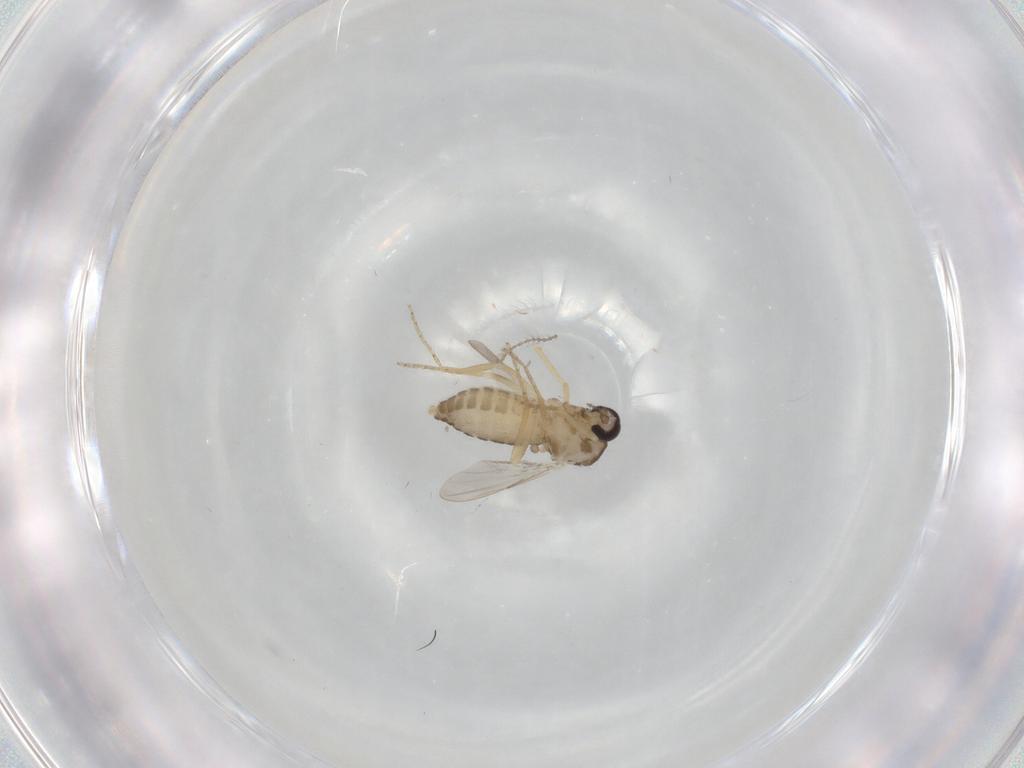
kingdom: Animalia
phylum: Arthropoda
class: Insecta
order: Diptera
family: Ceratopogonidae
